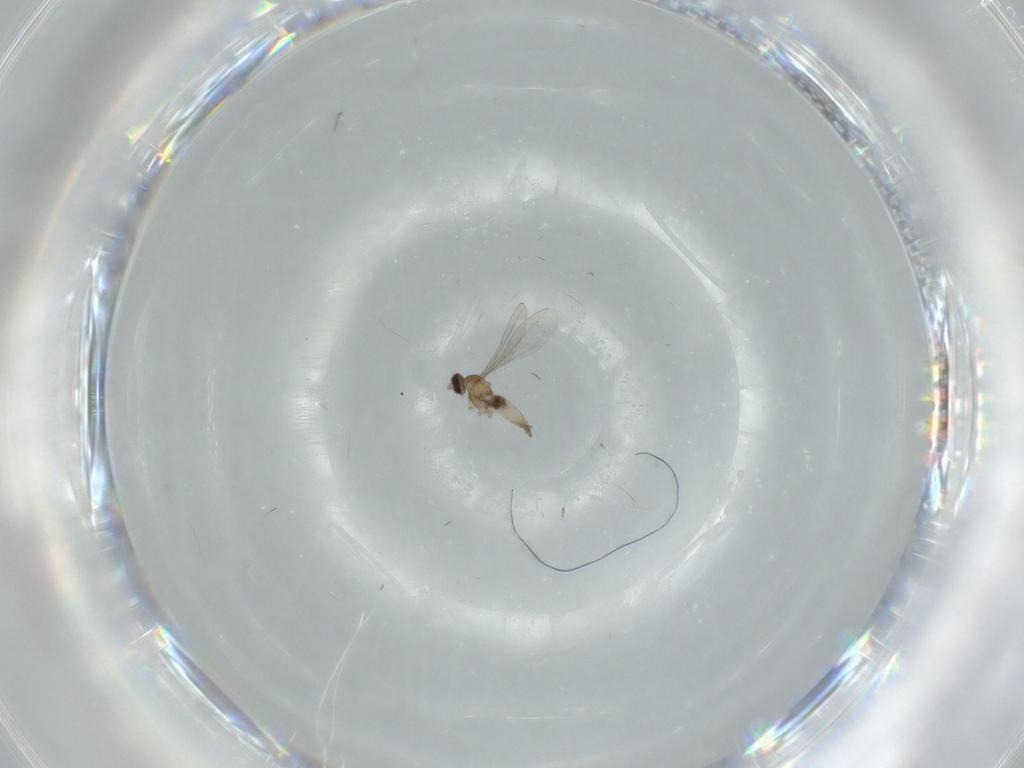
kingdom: Animalia
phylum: Arthropoda
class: Insecta
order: Diptera
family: Cecidomyiidae
